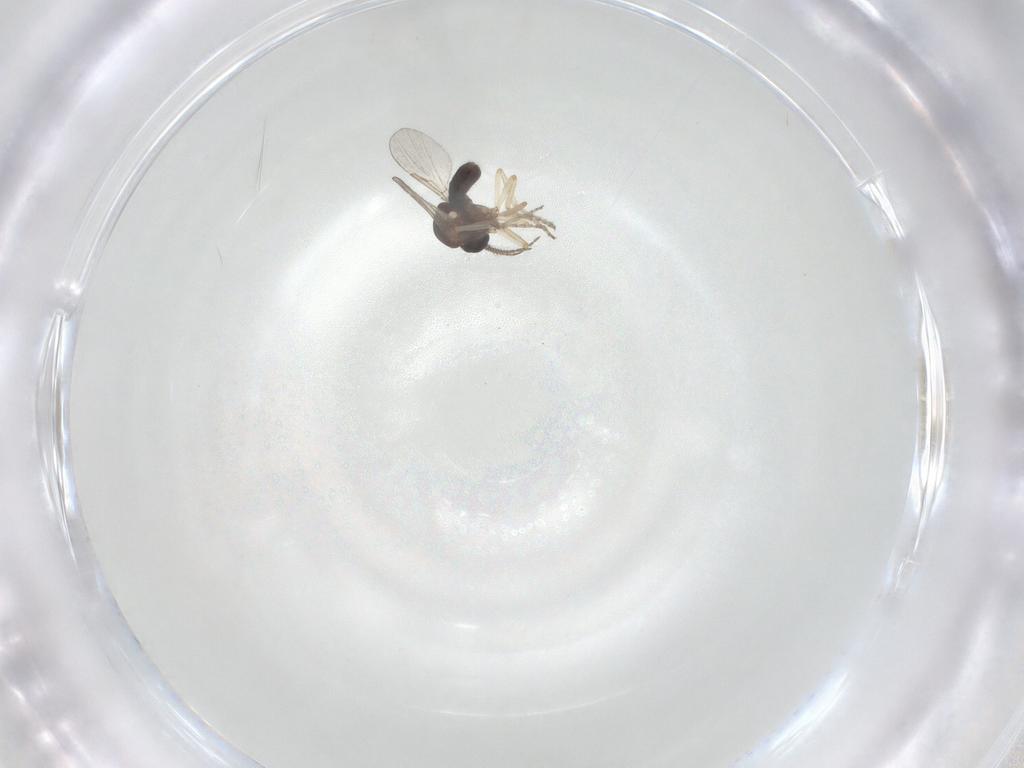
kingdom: Animalia
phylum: Arthropoda
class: Insecta
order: Diptera
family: Ceratopogonidae
